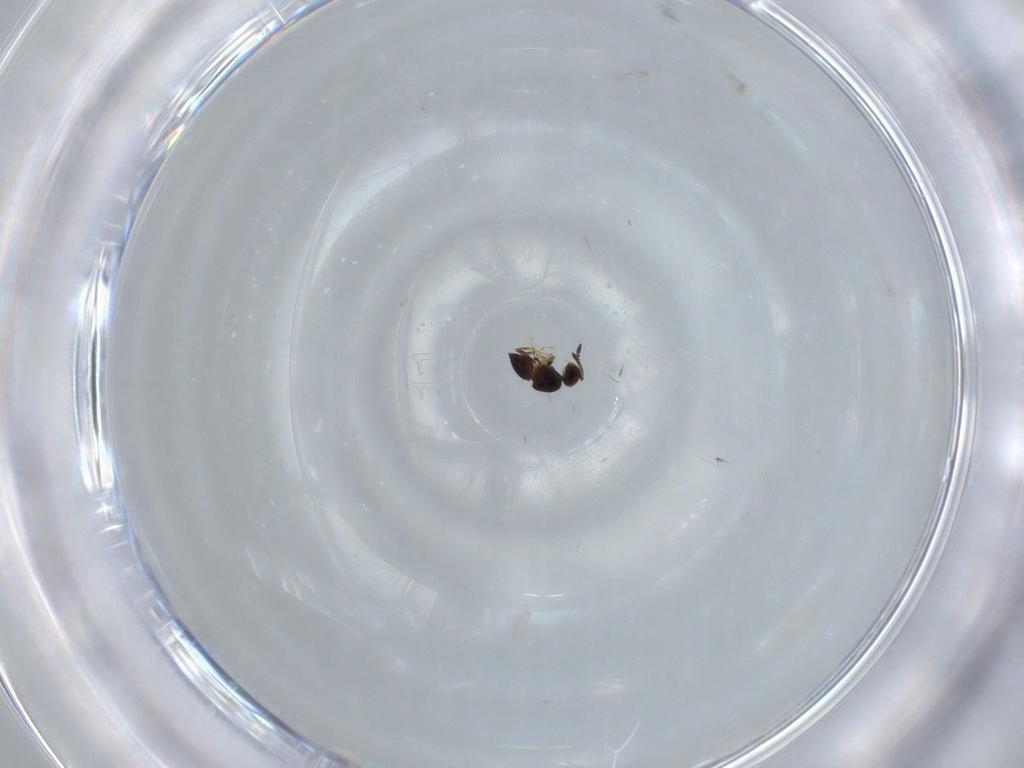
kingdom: Animalia
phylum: Arthropoda
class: Insecta
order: Hymenoptera
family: Ceraphronidae
